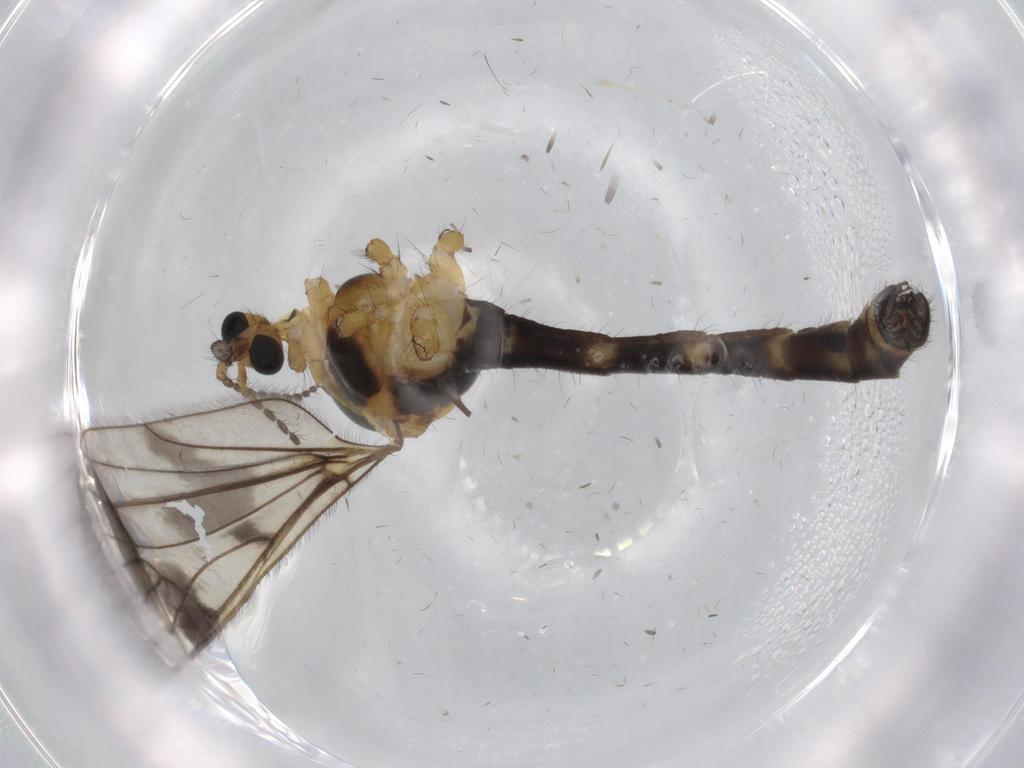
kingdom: Animalia
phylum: Arthropoda
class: Insecta
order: Diptera
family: Limoniidae
